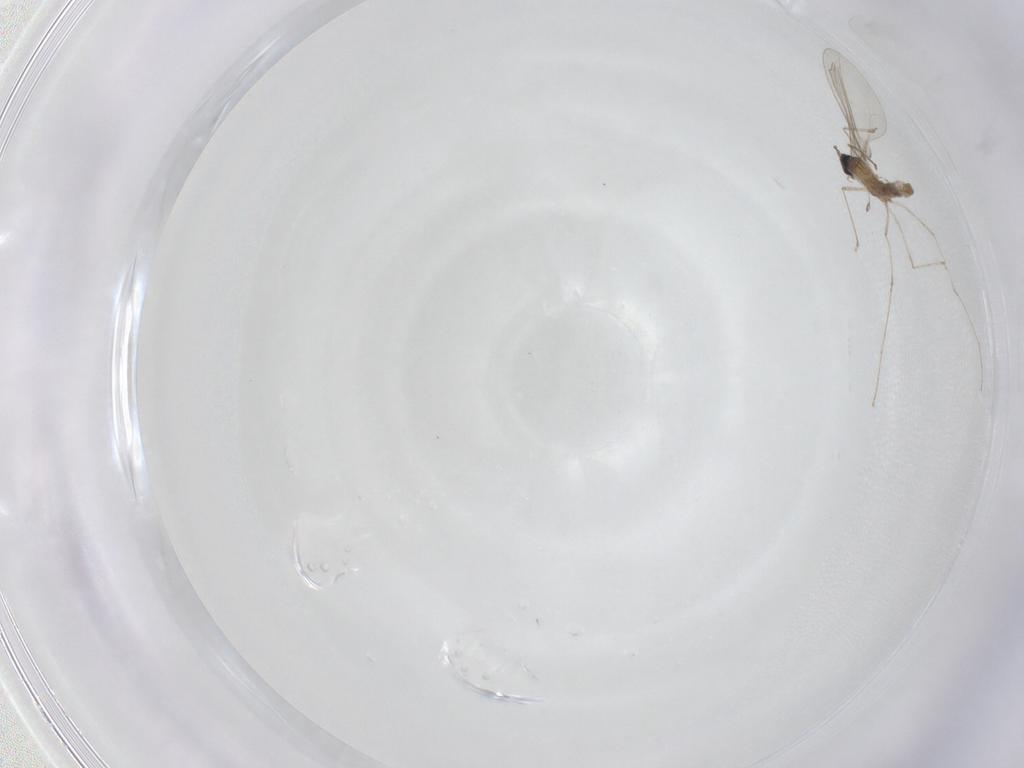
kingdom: Animalia
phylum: Arthropoda
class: Insecta
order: Diptera
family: Cecidomyiidae
